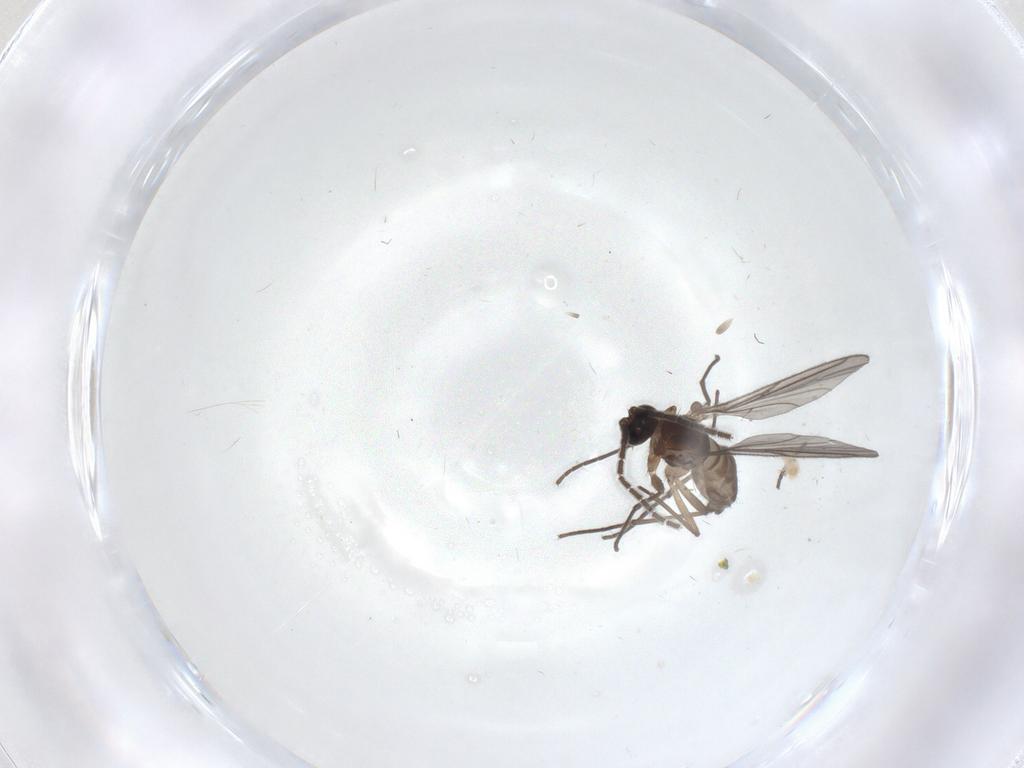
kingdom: Animalia
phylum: Arthropoda
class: Insecta
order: Diptera
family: Sciaridae
